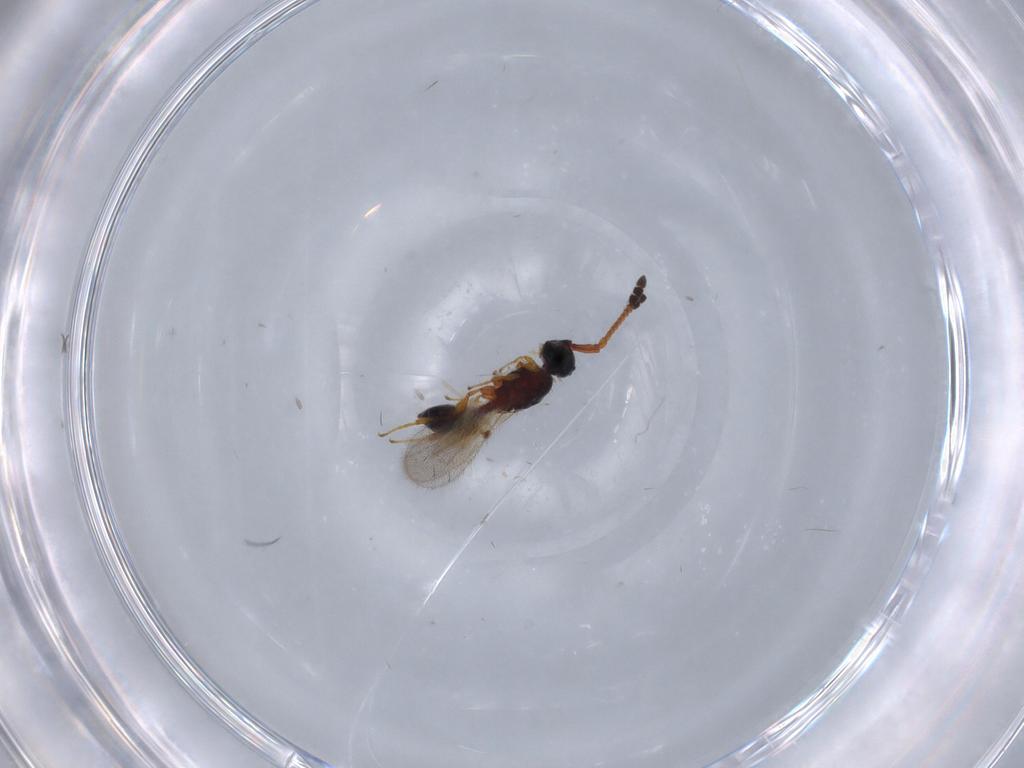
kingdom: Animalia
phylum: Arthropoda
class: Insecta
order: Hymenoptera
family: Diapriidae
